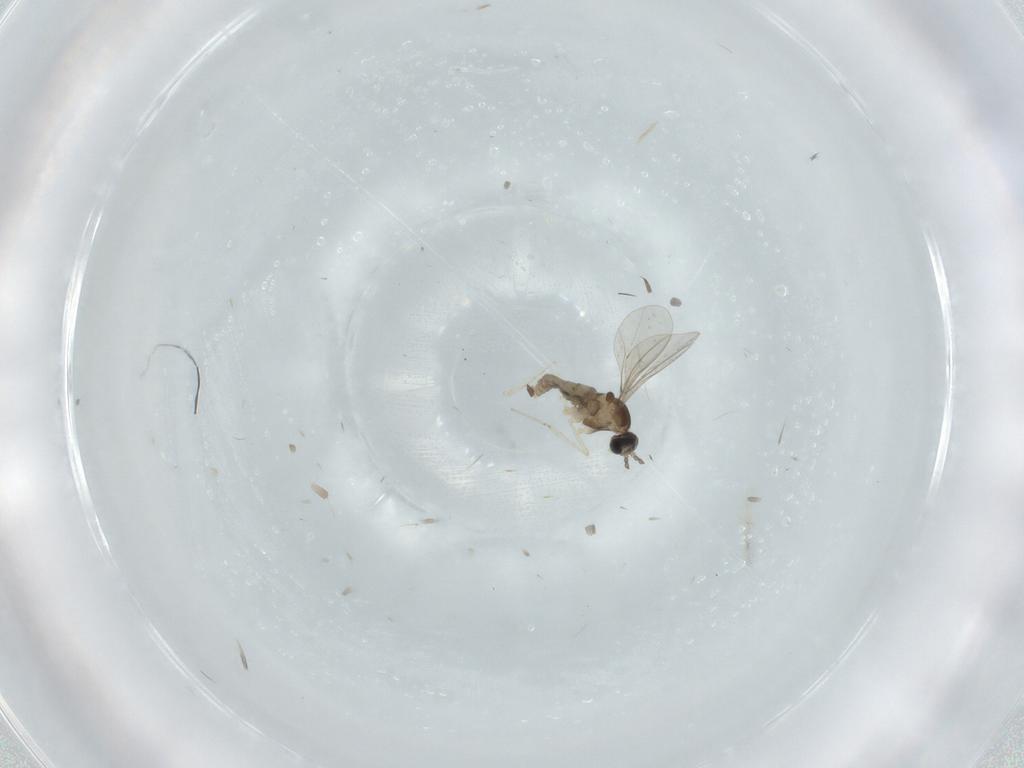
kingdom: Animalia
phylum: Arthropoda
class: Insecta
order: Diptera
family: Cecidomyiidae
